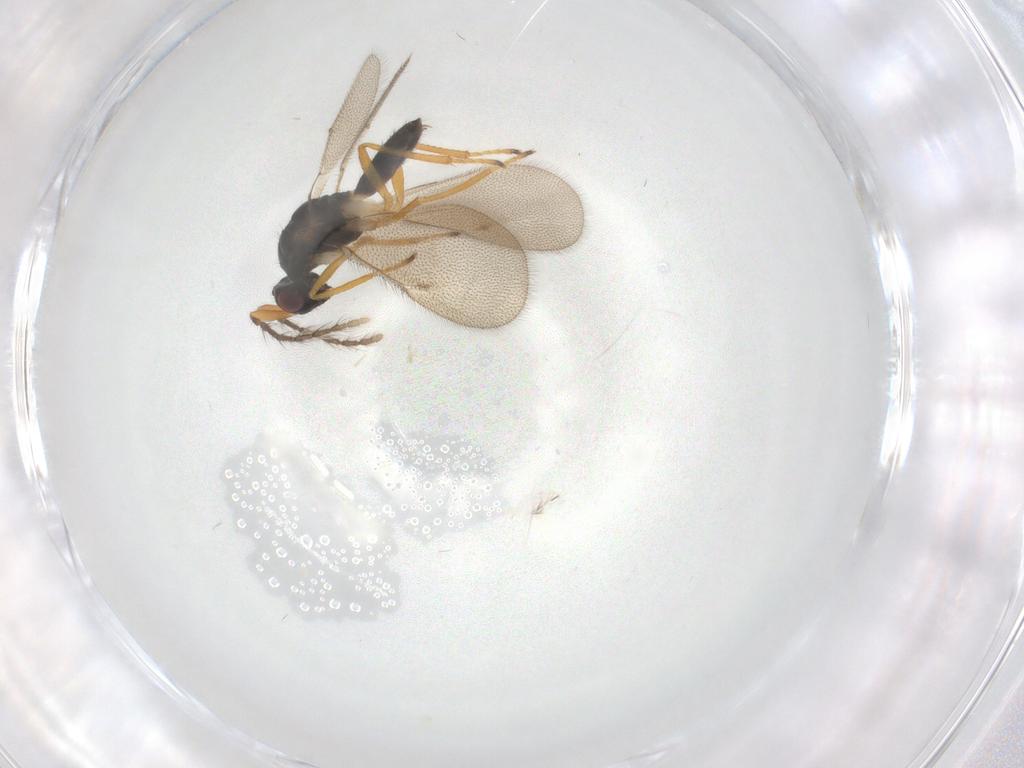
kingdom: Animalia
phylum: Arthropoda
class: Insecta
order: Hymenoptera
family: Eulophidae
